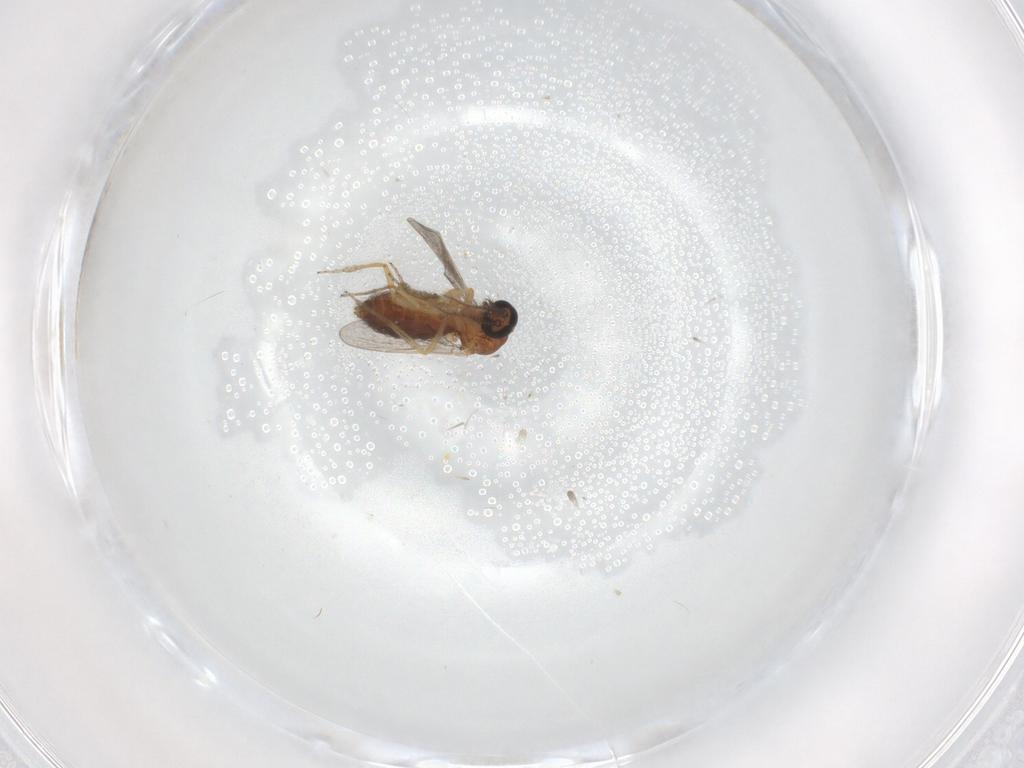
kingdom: Animalia
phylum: Arthropoda
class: Insecta
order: Diptera
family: Ceratopogonidae
